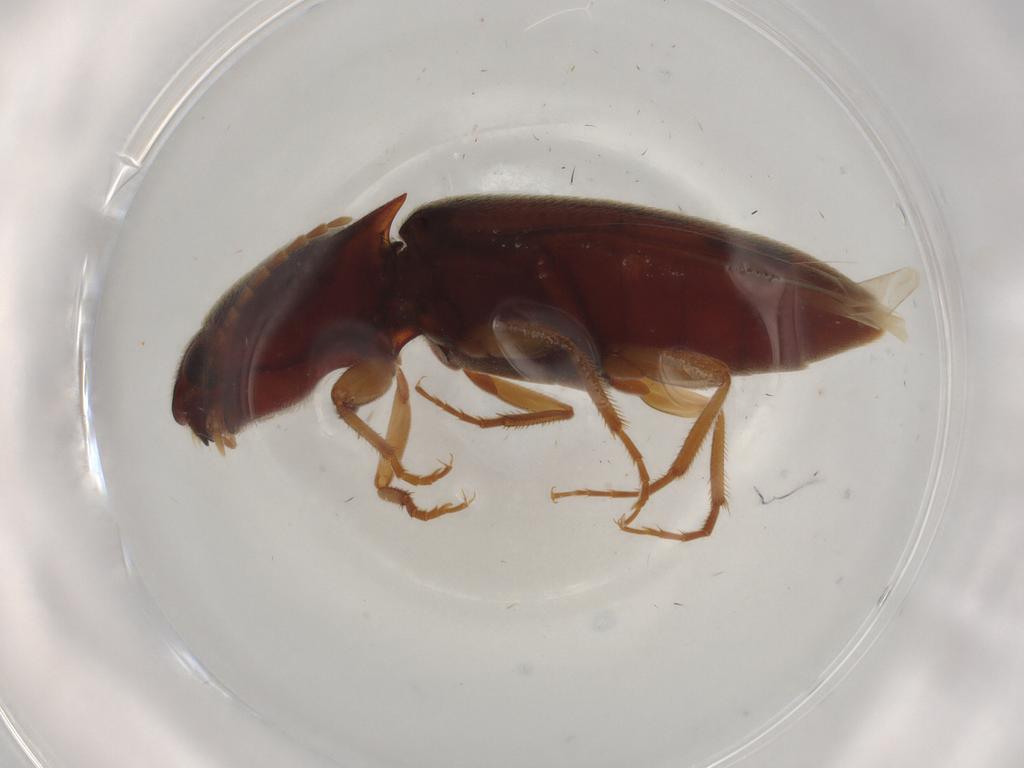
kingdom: Animalia
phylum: Arthropoda
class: Insecta
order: Coleoptera
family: Elateridae
